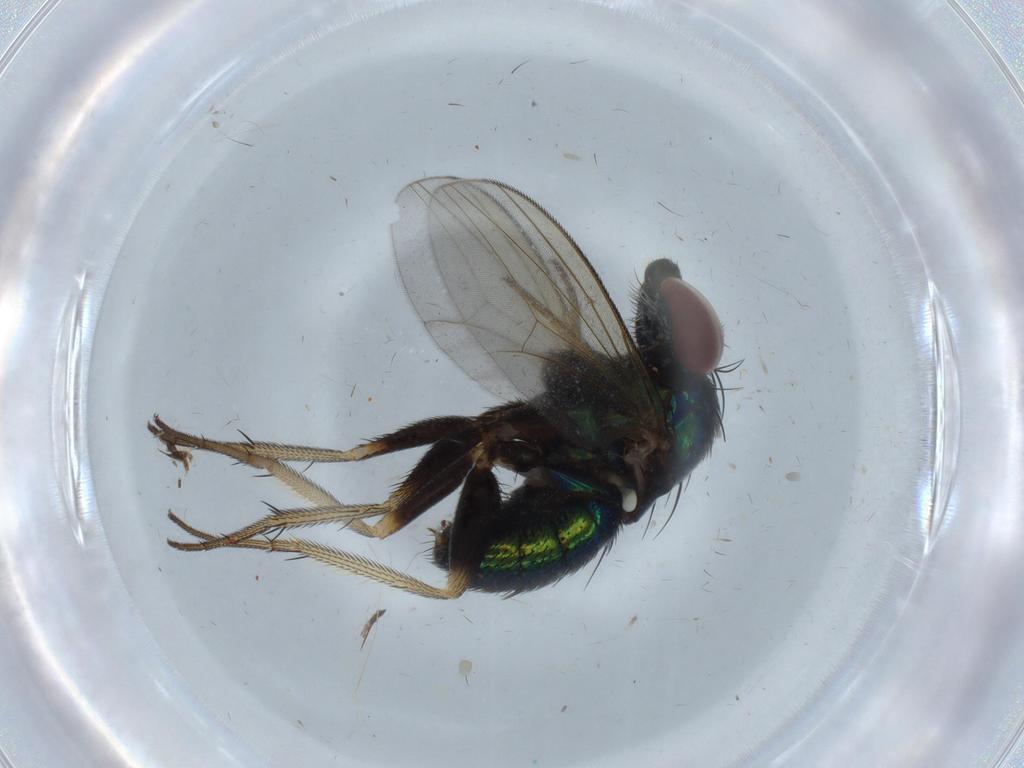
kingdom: Animalia
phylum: Arthropoda
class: Insecta
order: Diptera
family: Dolichopodidae
